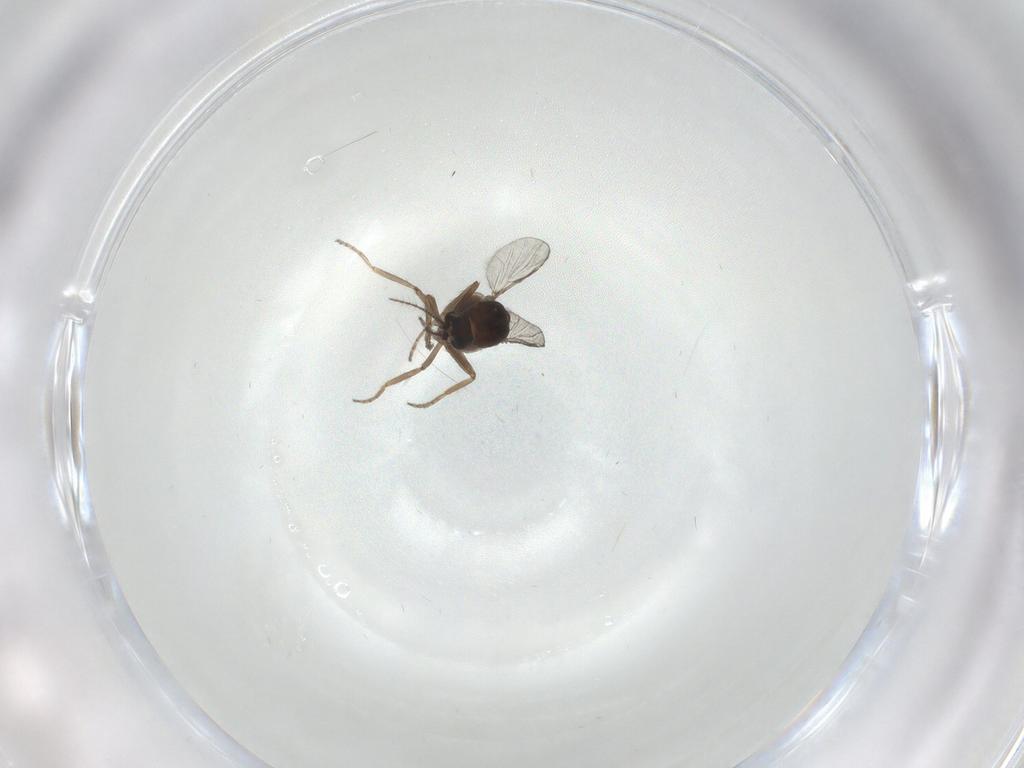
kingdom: Animalia
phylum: Arthropoda
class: Insecta
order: Diptera
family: Ceratopogonidae
